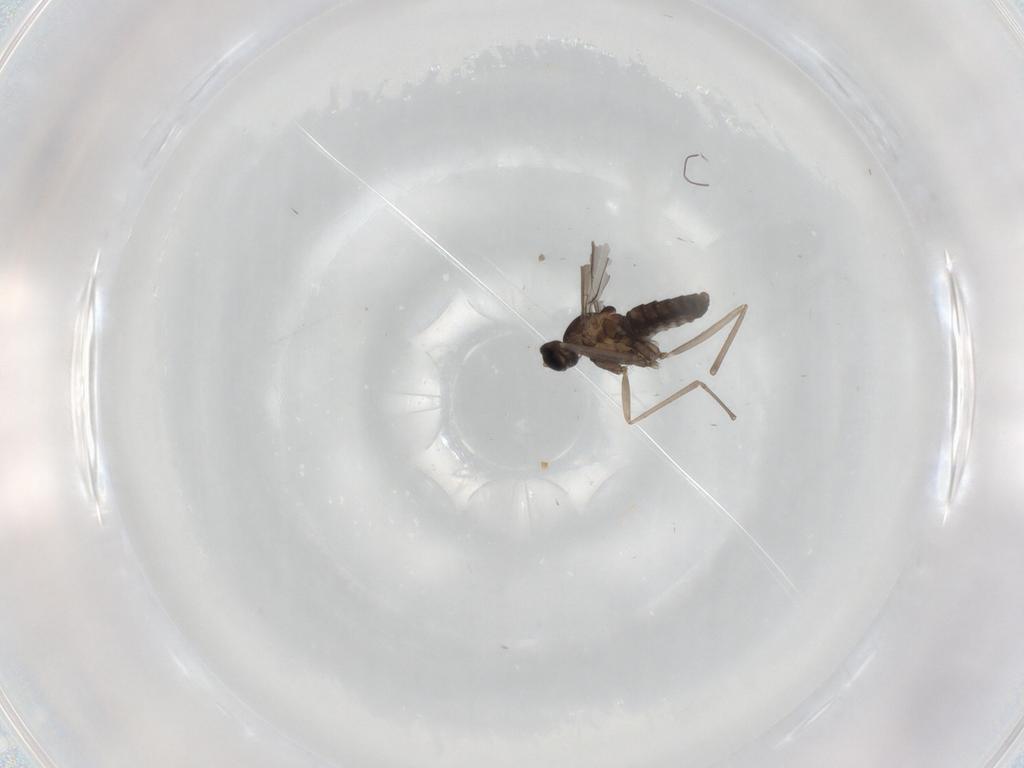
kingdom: Animalia
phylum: Arthropoda
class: Insecta
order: Diptera
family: Cecidomyiidae
